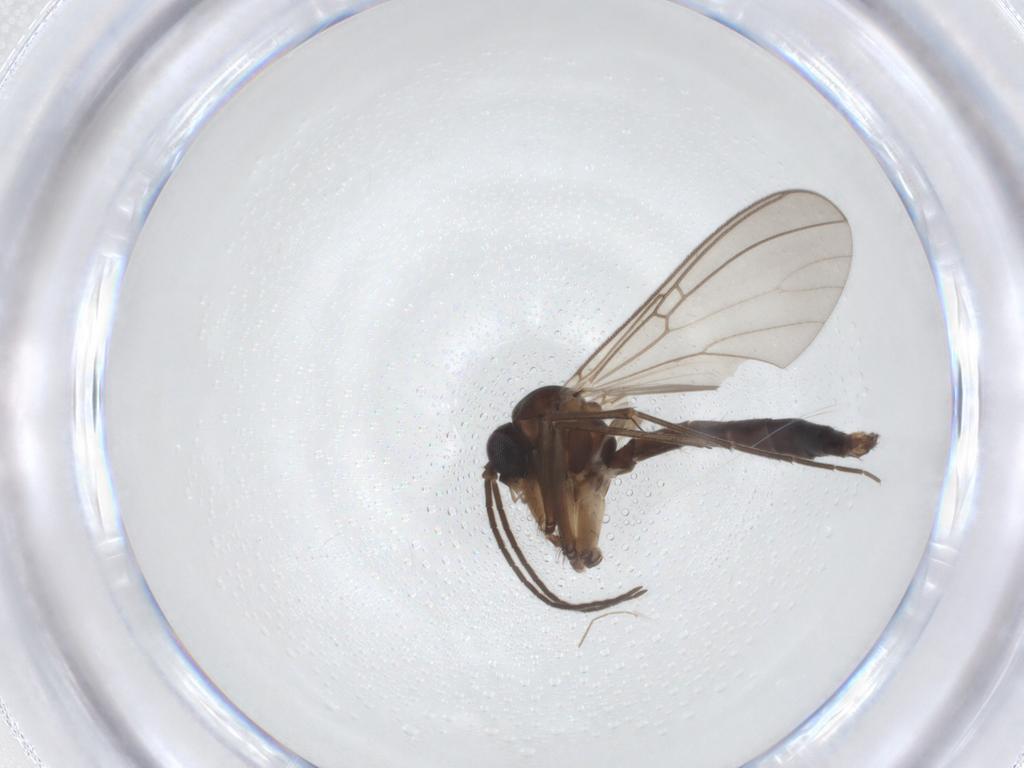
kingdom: Animalia
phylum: Arthropoda
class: Insecta
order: Diptera
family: Mycetophilidae
